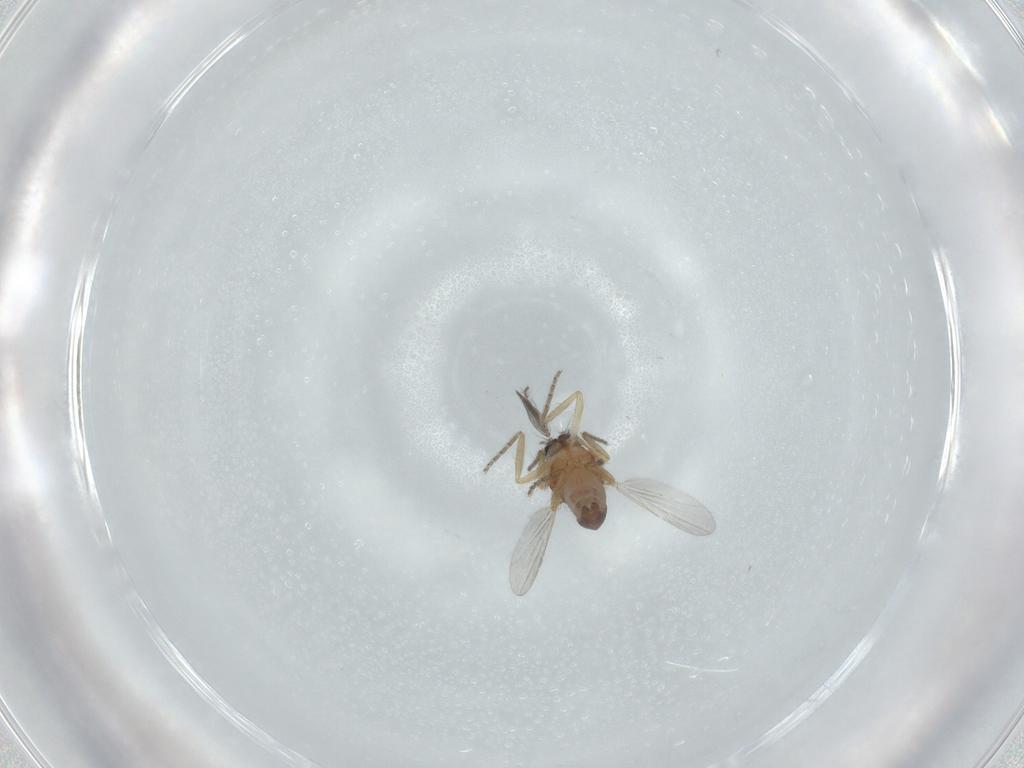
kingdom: Animalia
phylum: Arthropoda
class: Insecta
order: Diptera
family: Ceratopogonidae
